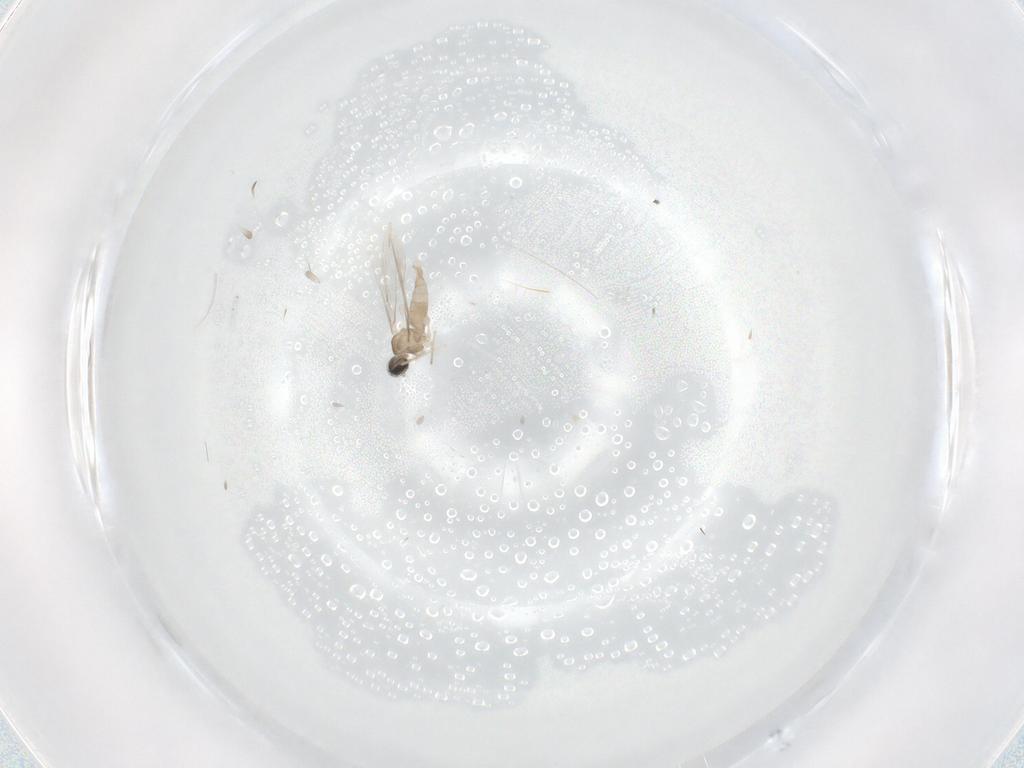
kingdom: Animalia
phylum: Arthropoda
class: Insecta
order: Diptera
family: Cecidomyiidae
